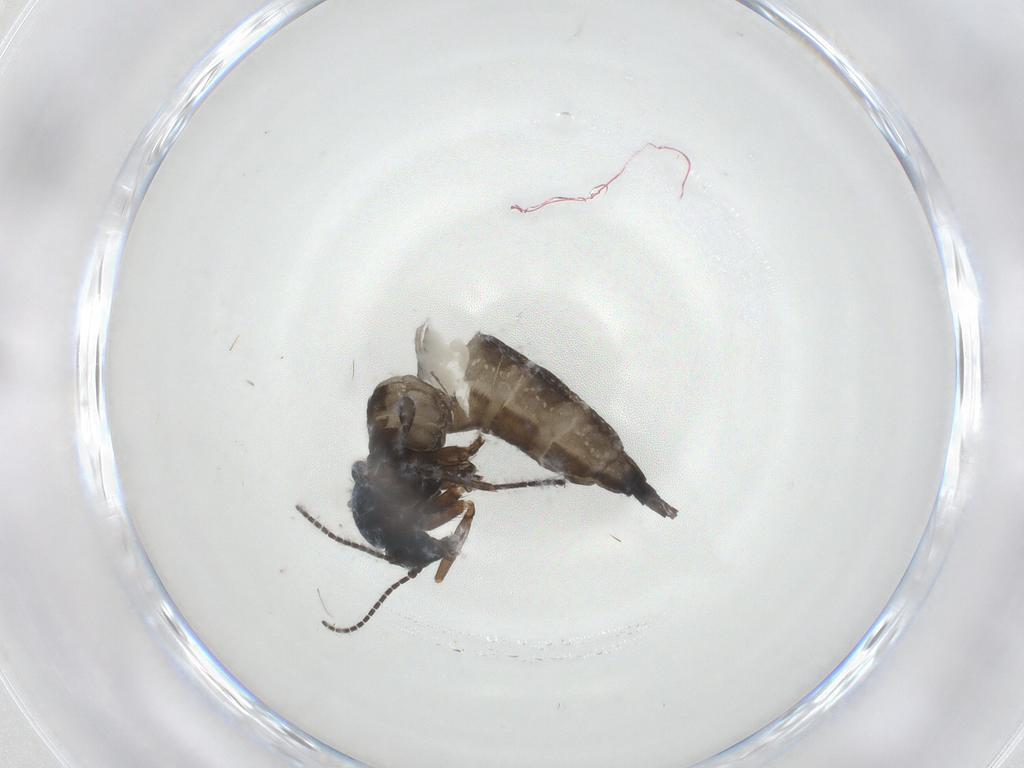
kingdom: Animalia
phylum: Arthropoda
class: Insecta
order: Diptera
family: Sciaridae
